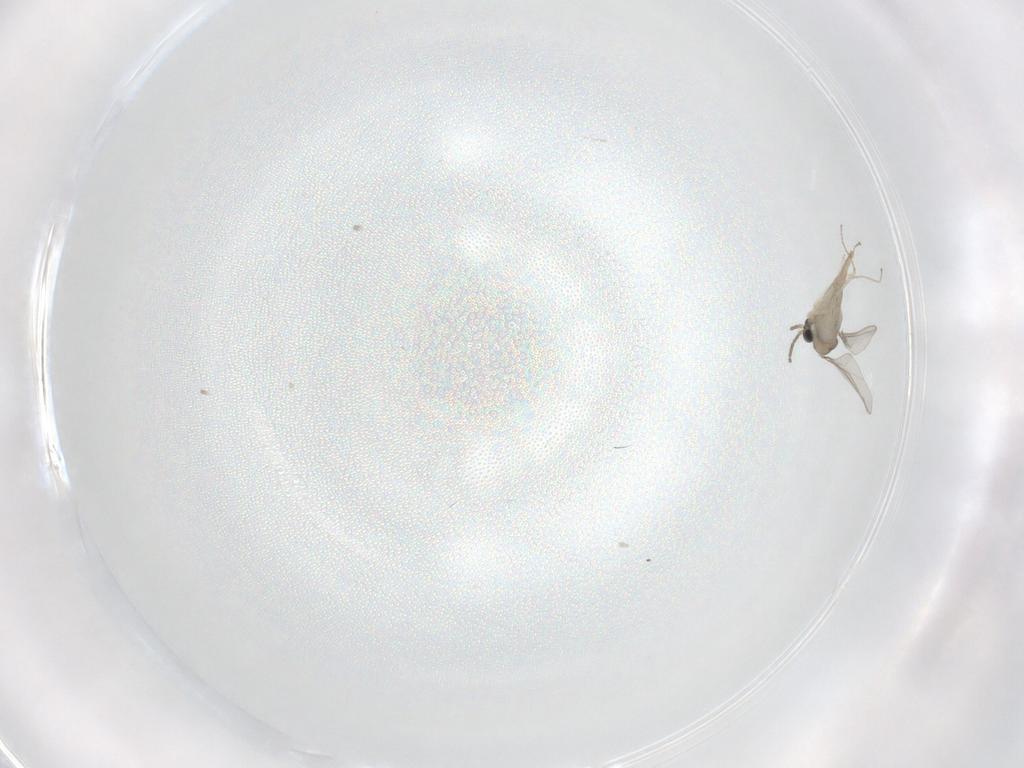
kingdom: Animalia
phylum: Arthropoda
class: Insecta
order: Diptera
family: Cecidomyiidae
